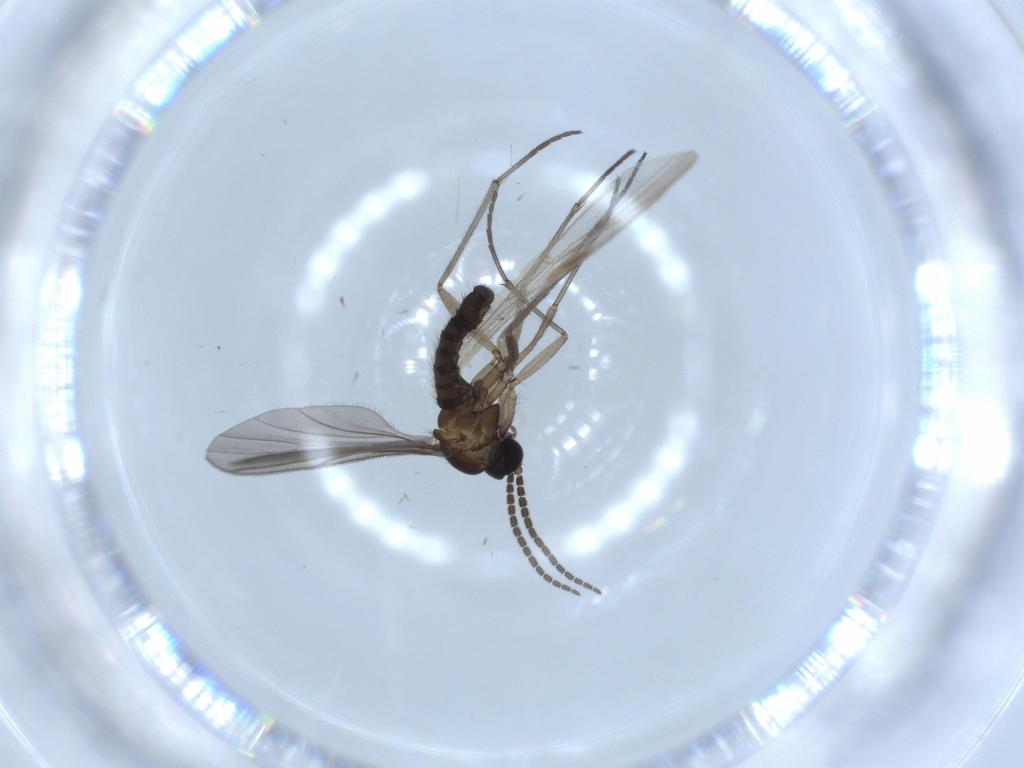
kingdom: Animalia
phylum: Arthropoda
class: Insecta
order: Diptera
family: Sciaridae
